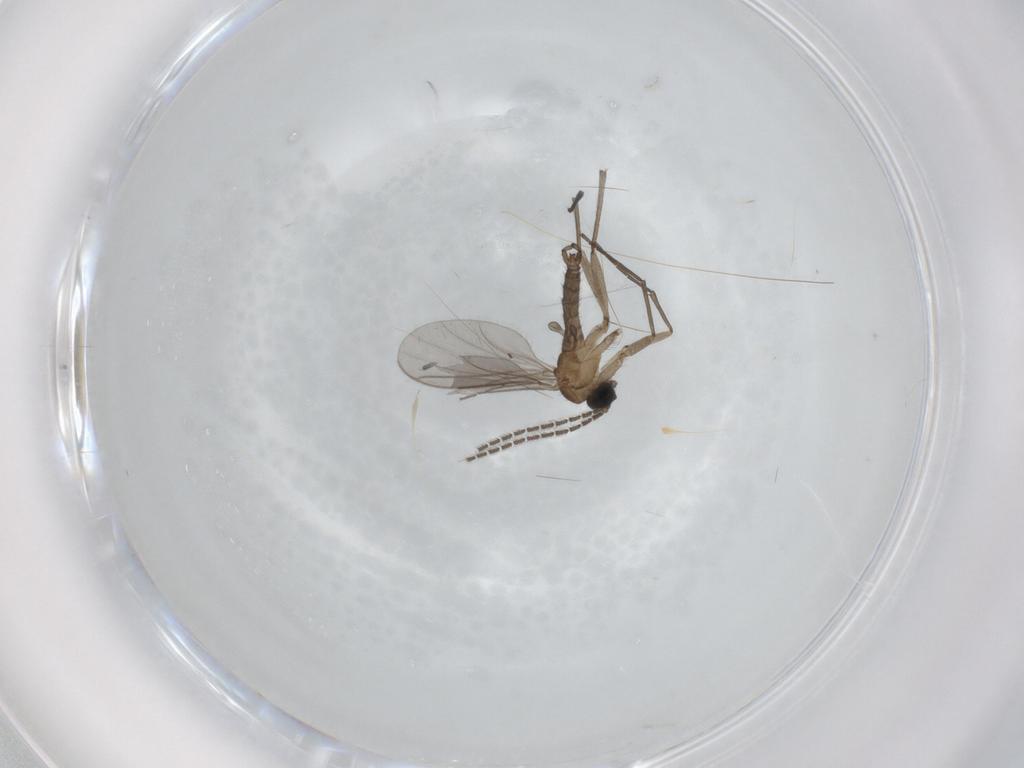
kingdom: Animalia
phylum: Arthropoda
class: Insecta
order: Diptera
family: Sciaridae
